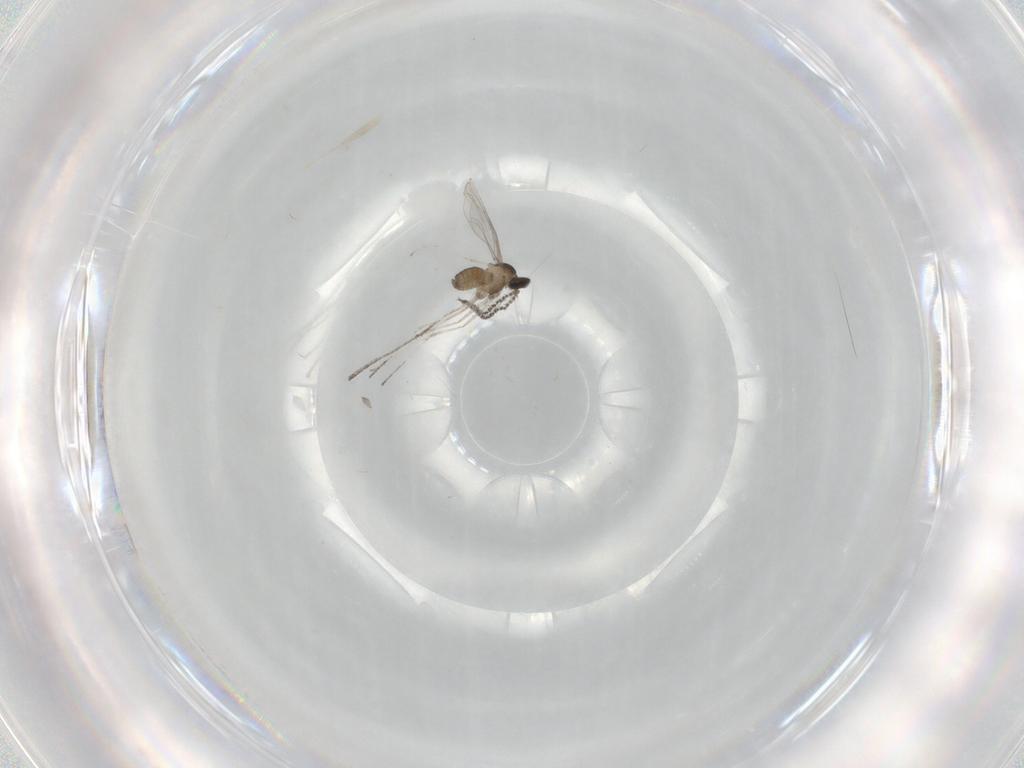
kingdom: Animalia
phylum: Arthropoda
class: Insecta
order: Diptera
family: Cecidomyiidae
